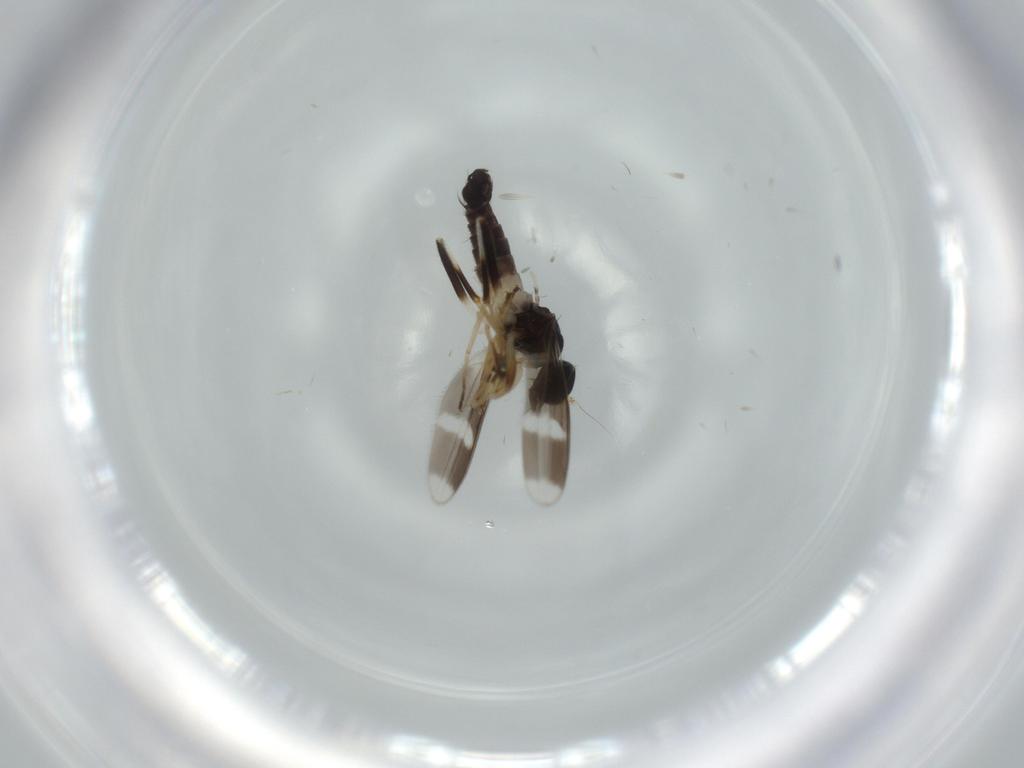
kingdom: Animalia
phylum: Arthropoda
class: Insecta
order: Diptera
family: Hybotidae
